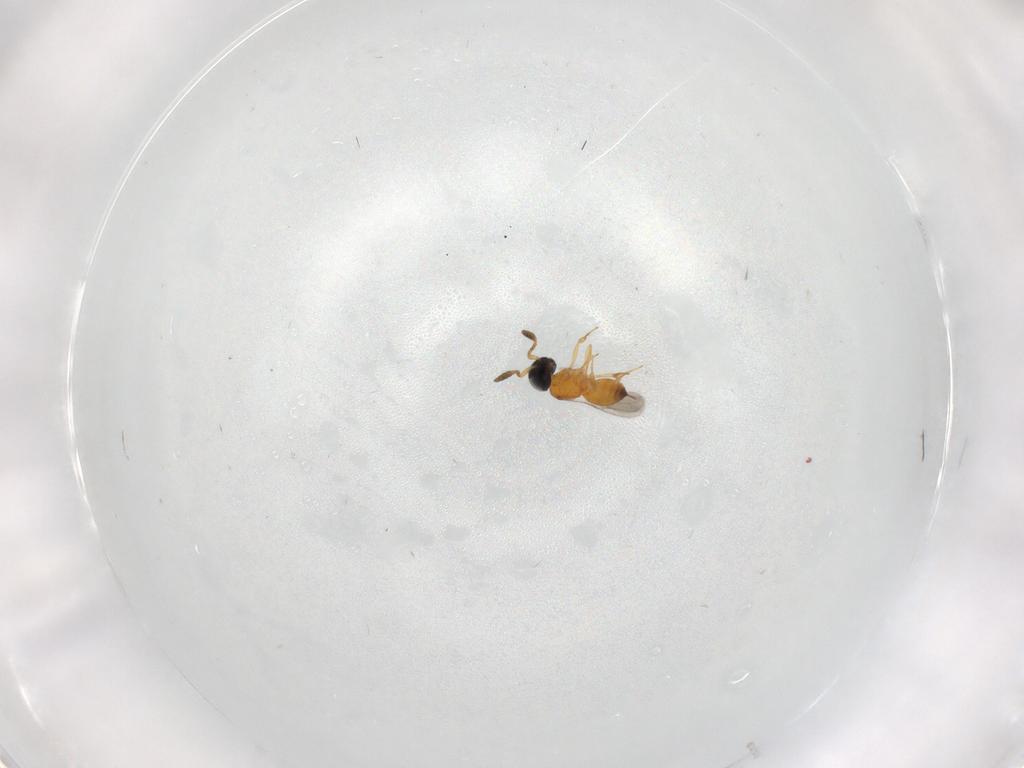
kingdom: Animalia
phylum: Arthropoda
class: Insecta
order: Hymenoptera
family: Scelionidae
